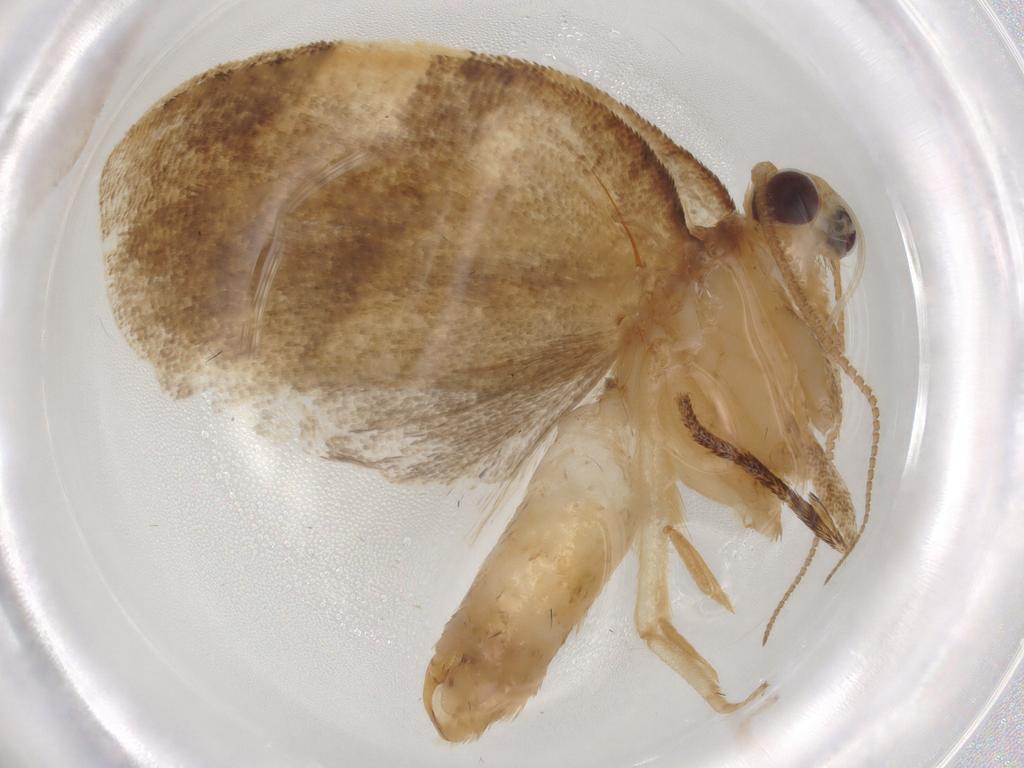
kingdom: Animalia
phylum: Arthropoda
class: Insecta
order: Lepidoptera
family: Tortricidae
